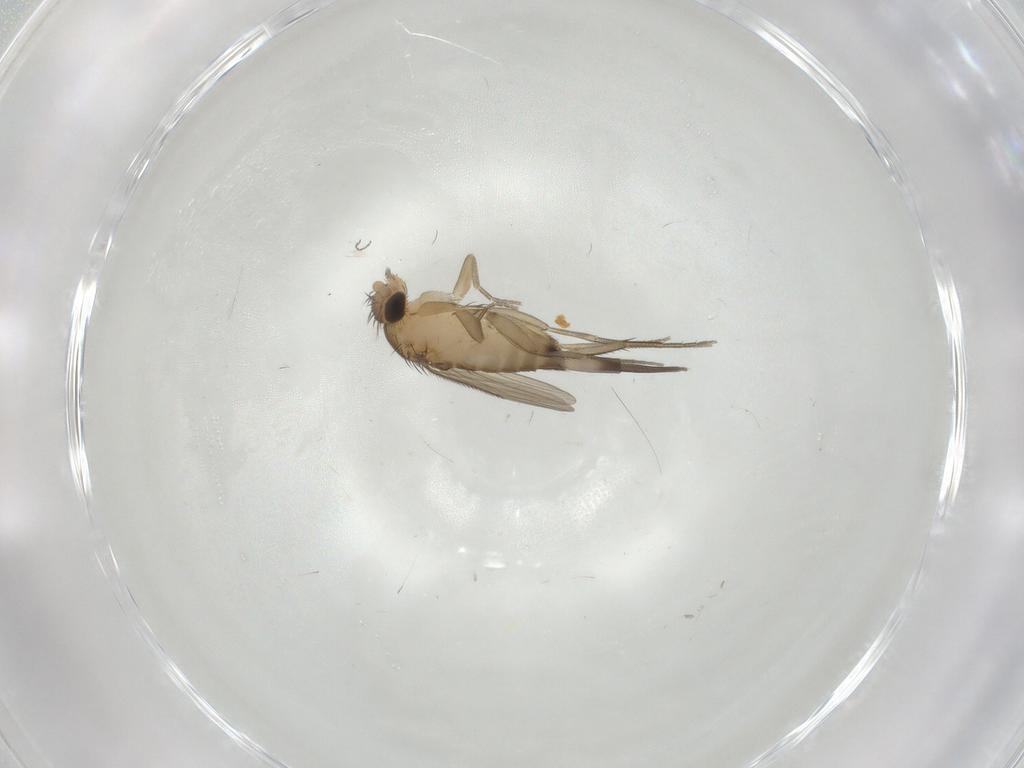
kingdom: Animalia
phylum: Arthropoda
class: Insecta
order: Diptera
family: Cecidomyiidae
